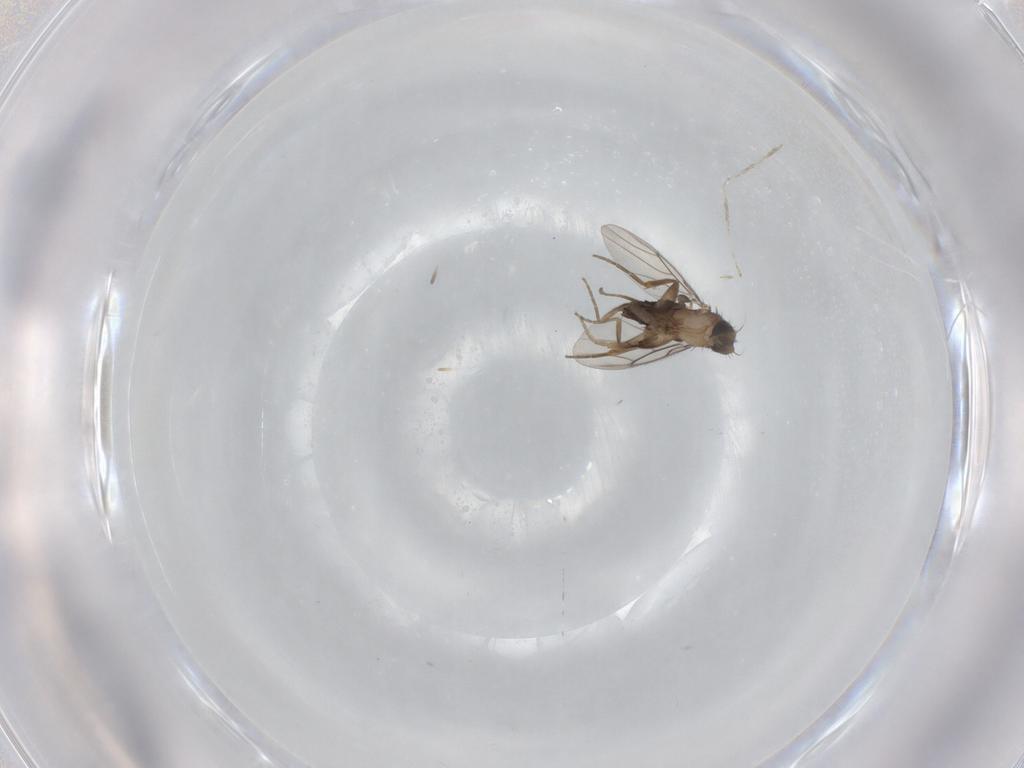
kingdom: Animalia
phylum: Arthropoda
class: Insecta
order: Diptera
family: Phoridae
